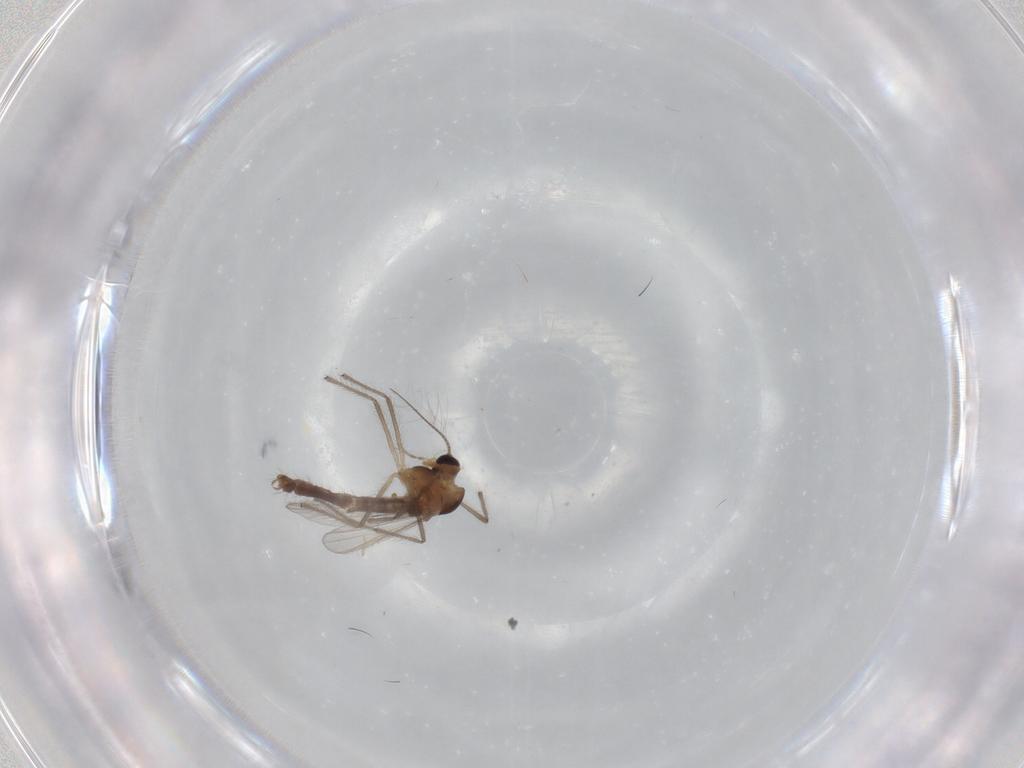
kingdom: Animalia
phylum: Arthropoda
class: Insecta
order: Diptera
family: Chironomidae
